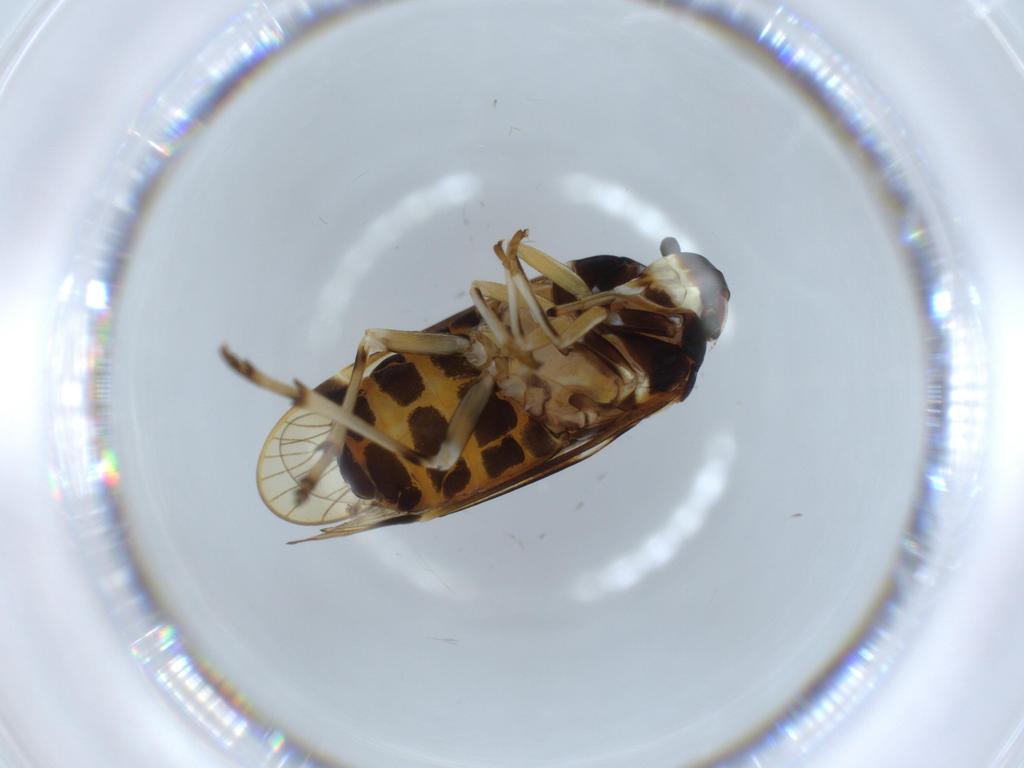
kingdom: Animalia
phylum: Arthropoda
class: Insecta
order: Hemiptera
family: Kinnaridae
